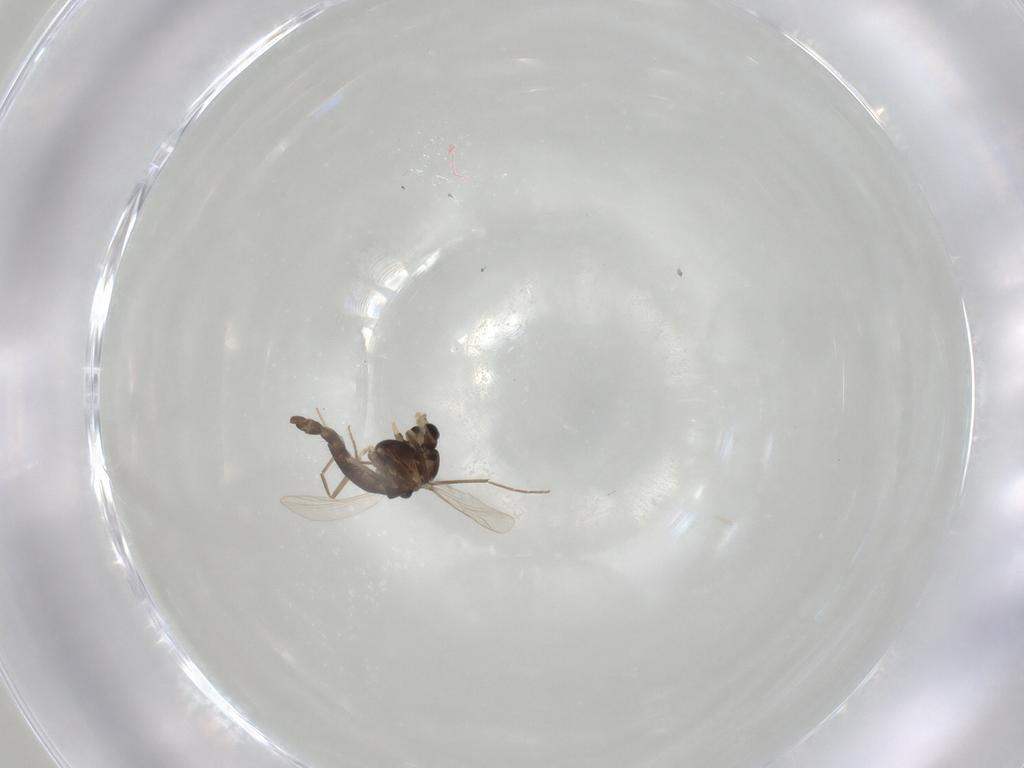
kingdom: Animalia
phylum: Arthropoda
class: Insecta
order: Diptera
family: Chironomidae
